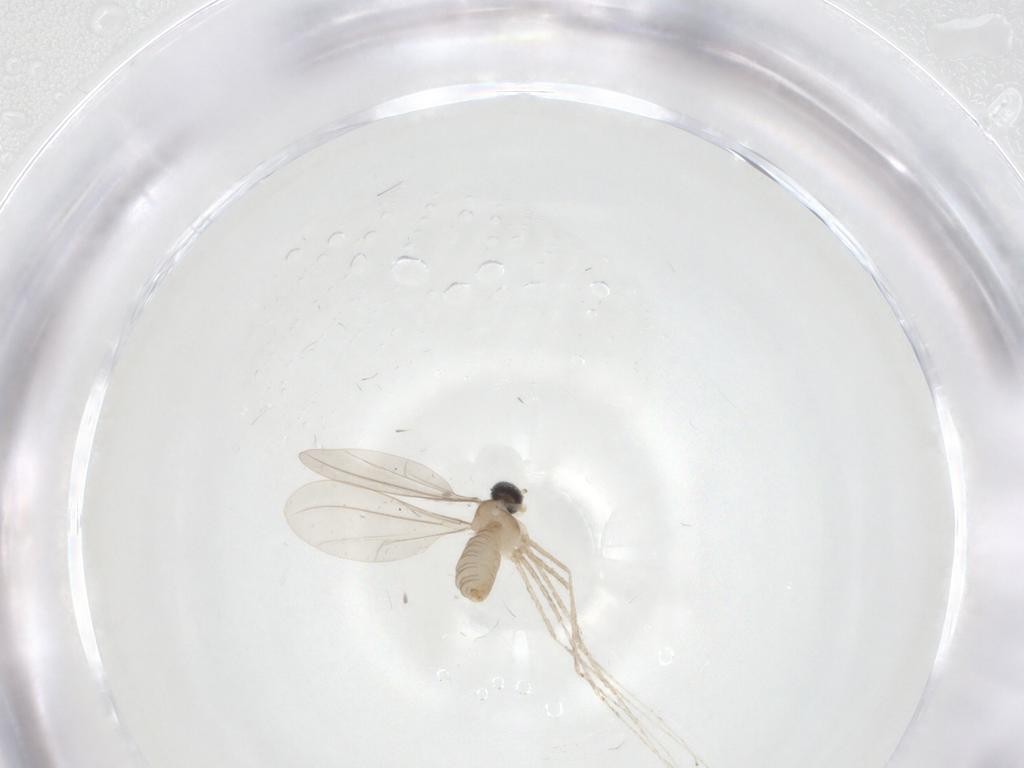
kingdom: Animalia
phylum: Arthropoda
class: Insecta
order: Diptera
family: Cecidomyiidae
